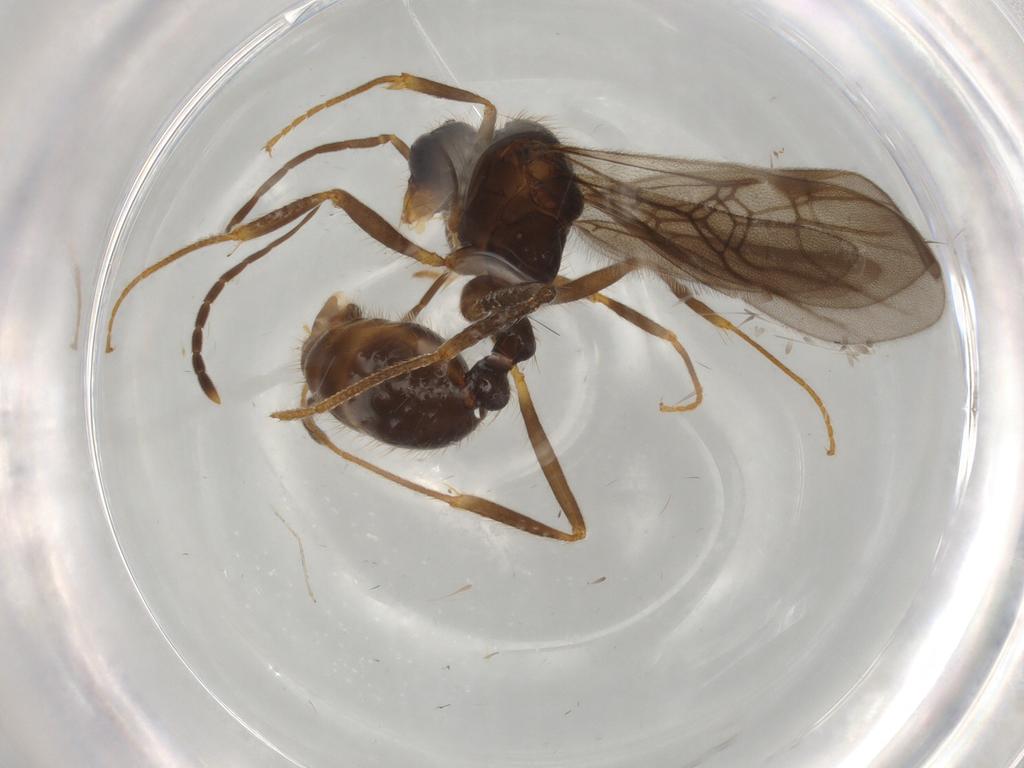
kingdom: Animalia
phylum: Arthropoda
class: Insecta
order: Hymenoptera
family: Formicidae
